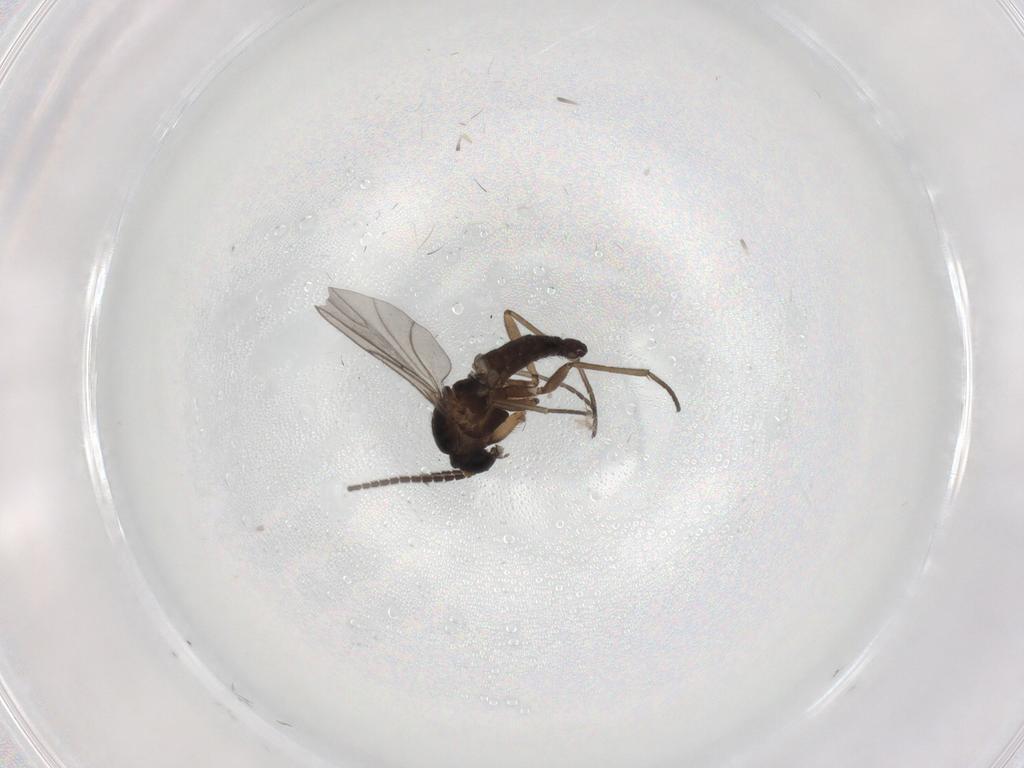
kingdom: Animalia
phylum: Arthropoda
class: Insecta
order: Diptera
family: Sciaridae
